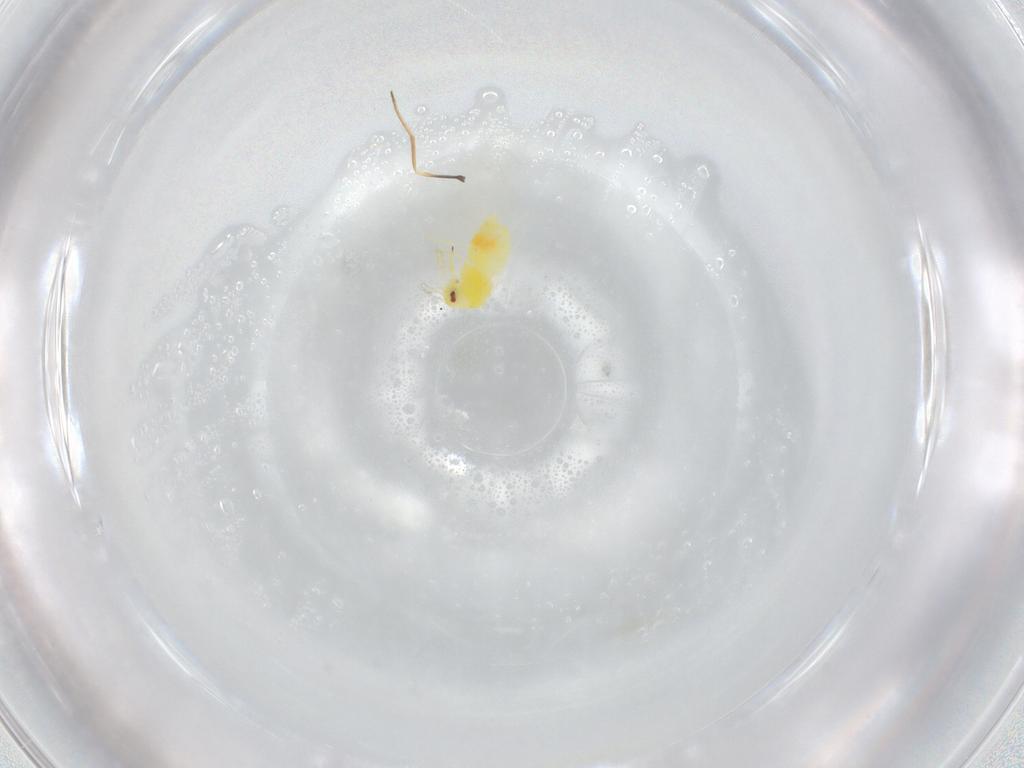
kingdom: Animalia
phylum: Arthropoda
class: Insecta
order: Hemiptera
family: Aleyrodidae
